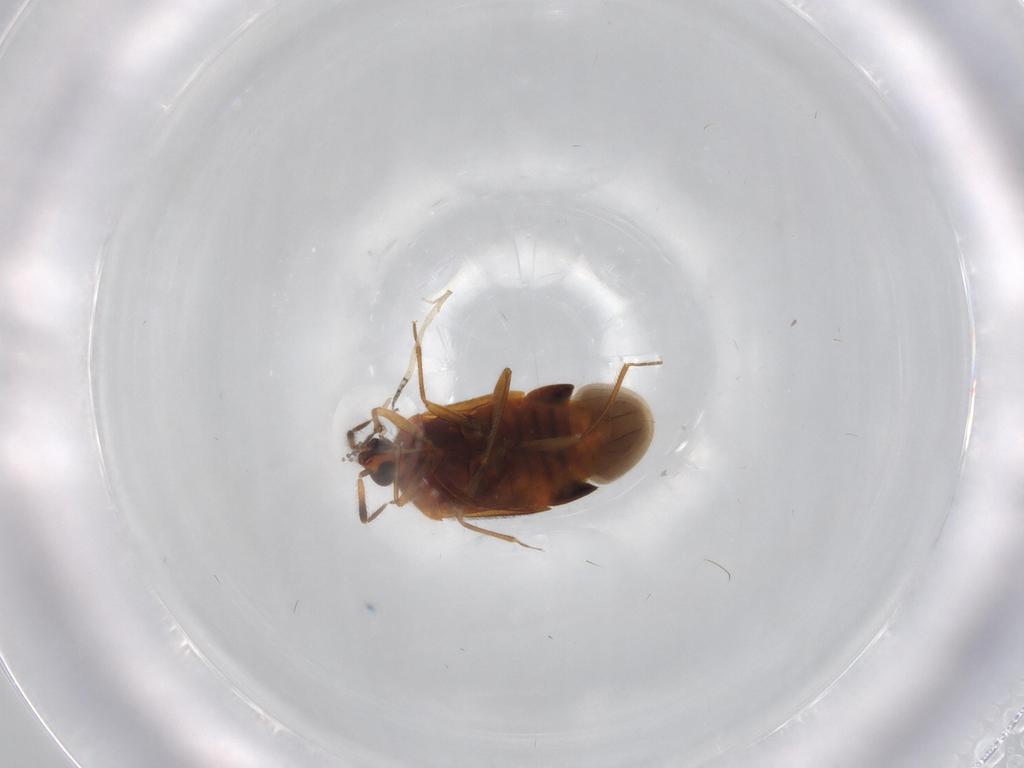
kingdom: Animalia
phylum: Arthropoda
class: Insecta
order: Hemiptera
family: Anthocoridae
